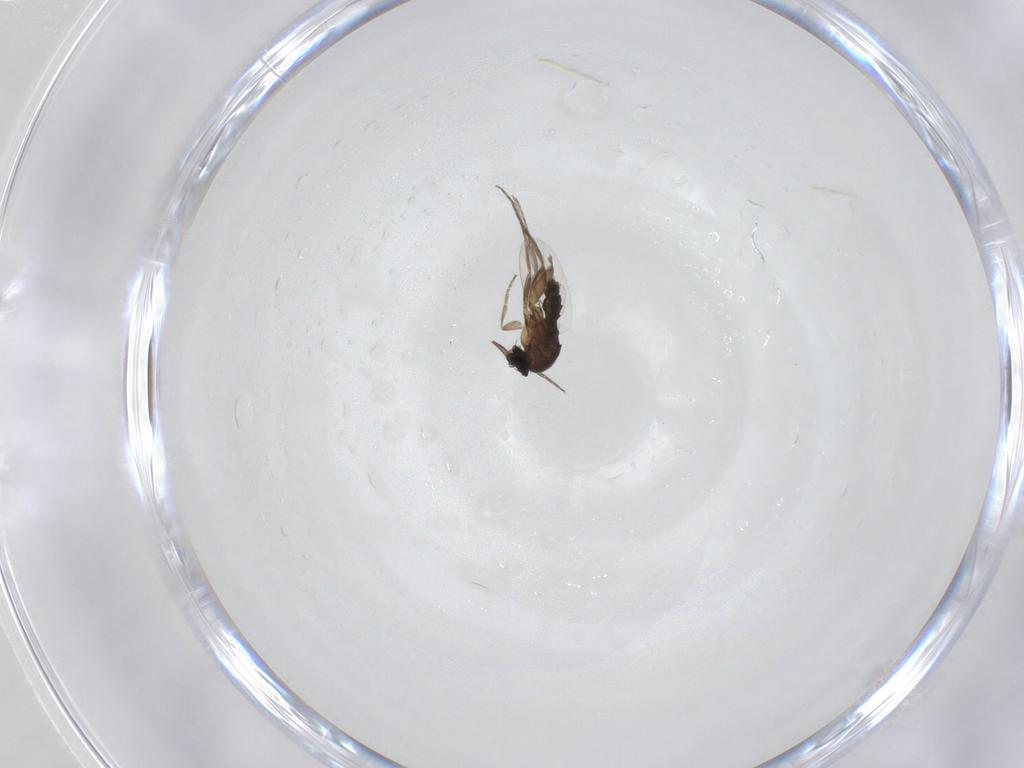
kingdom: Animalia
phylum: Arthropoda
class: Insecta
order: Diptera
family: Phoridae
